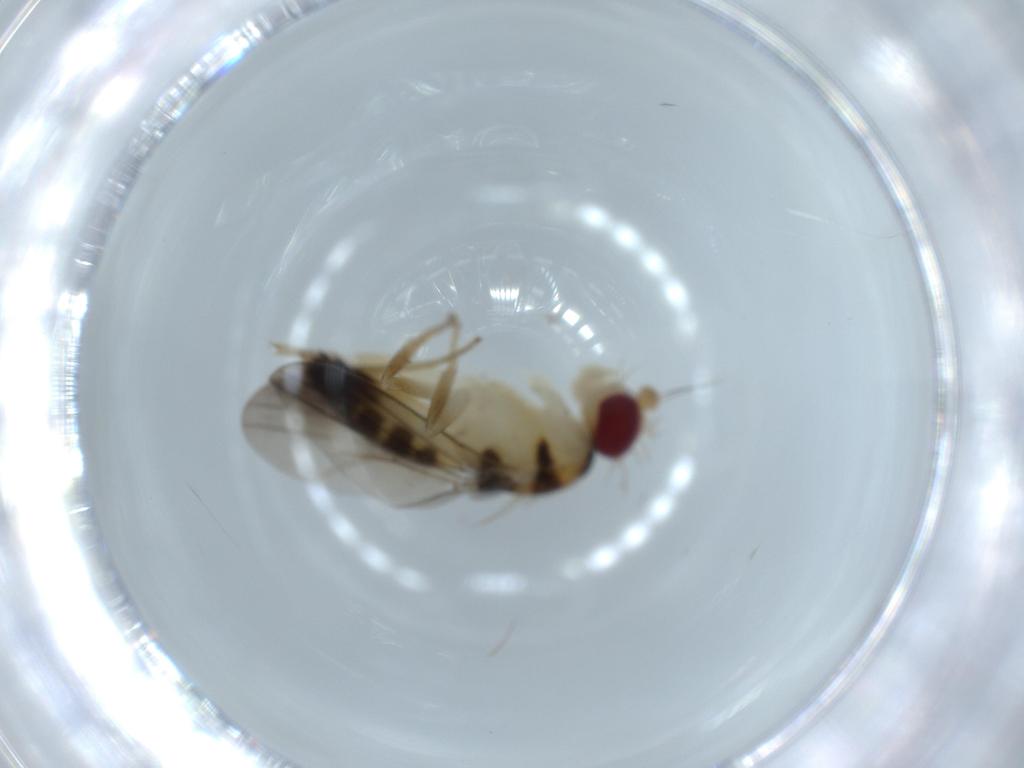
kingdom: Animalia
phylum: Arthropoda
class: Insecta
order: Diptera
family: Clusiidae
